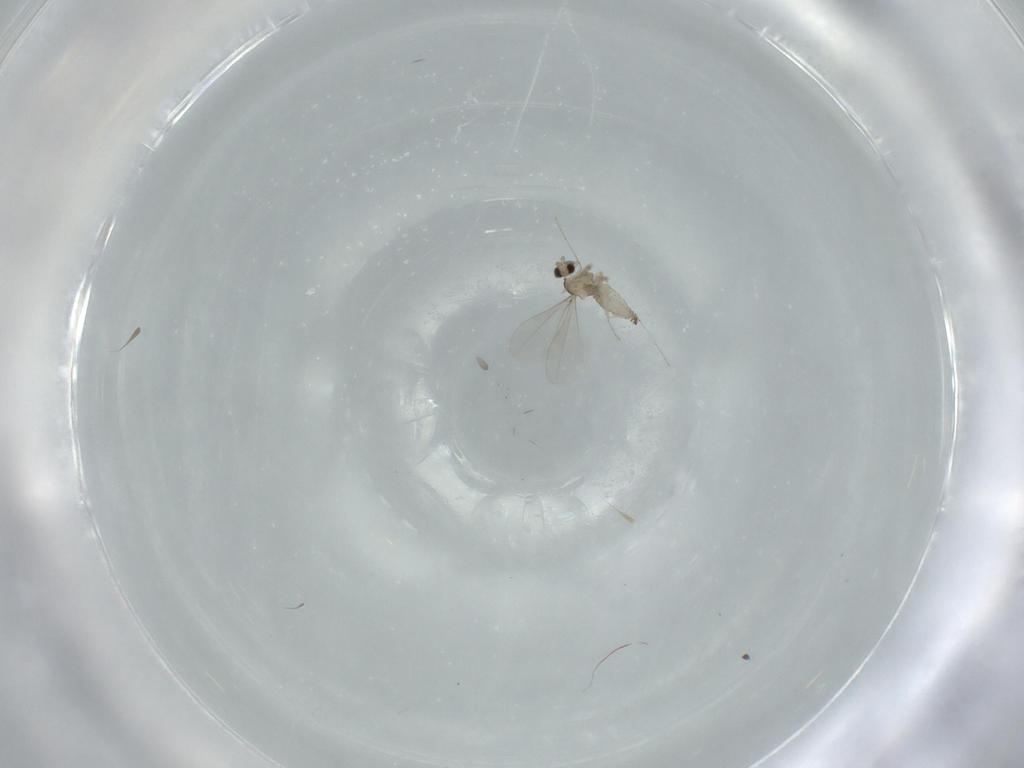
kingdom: Animalia
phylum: Arthropoda
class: Insecta
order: Diptera
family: Cecidomyiidae
